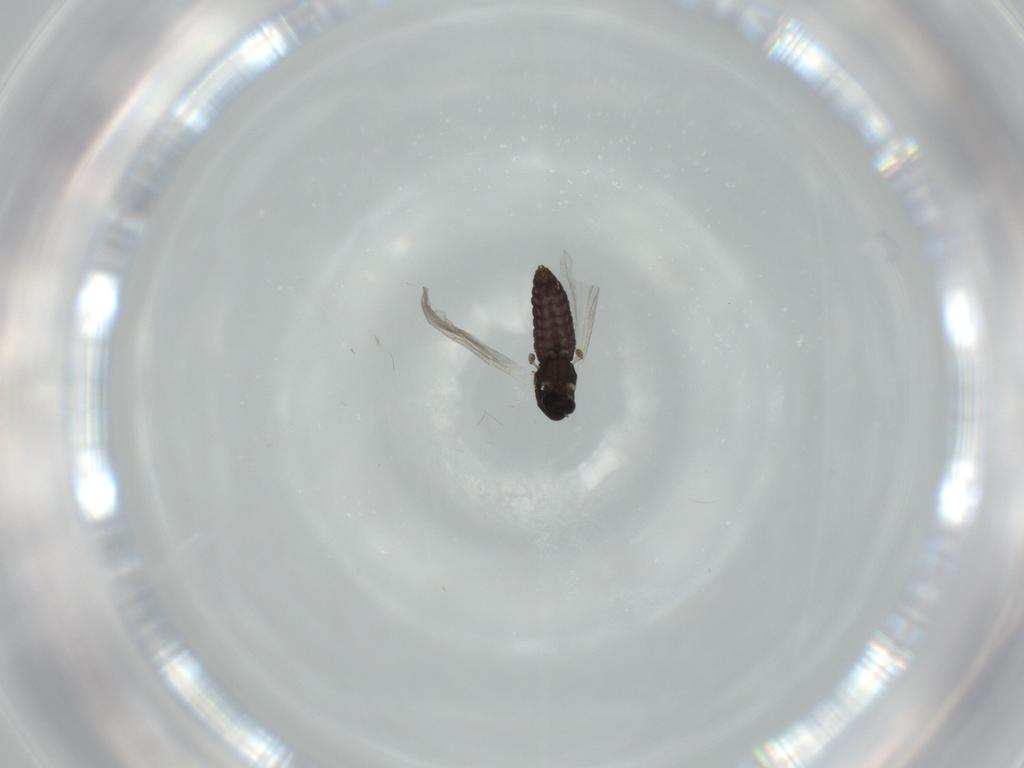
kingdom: Animalia
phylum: Arthropoda
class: Insecta
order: Diptera
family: Chironomidae
